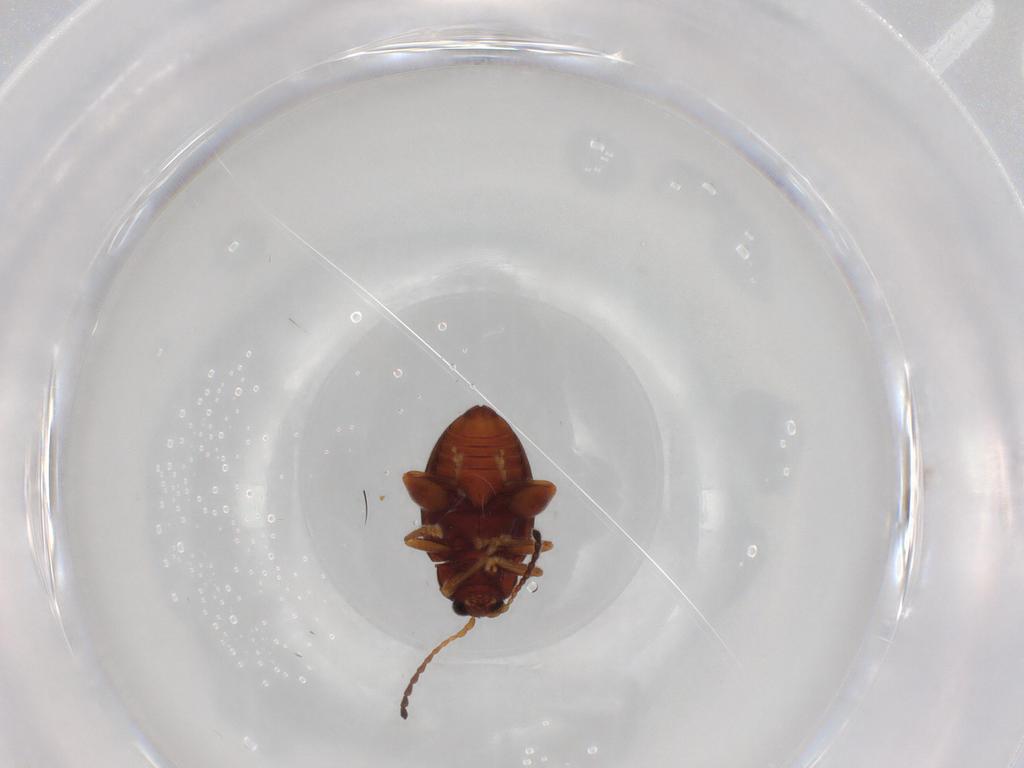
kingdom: Animalia
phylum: Arthropoda
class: Insecta
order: Coleoptera
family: Chrysomelidae
